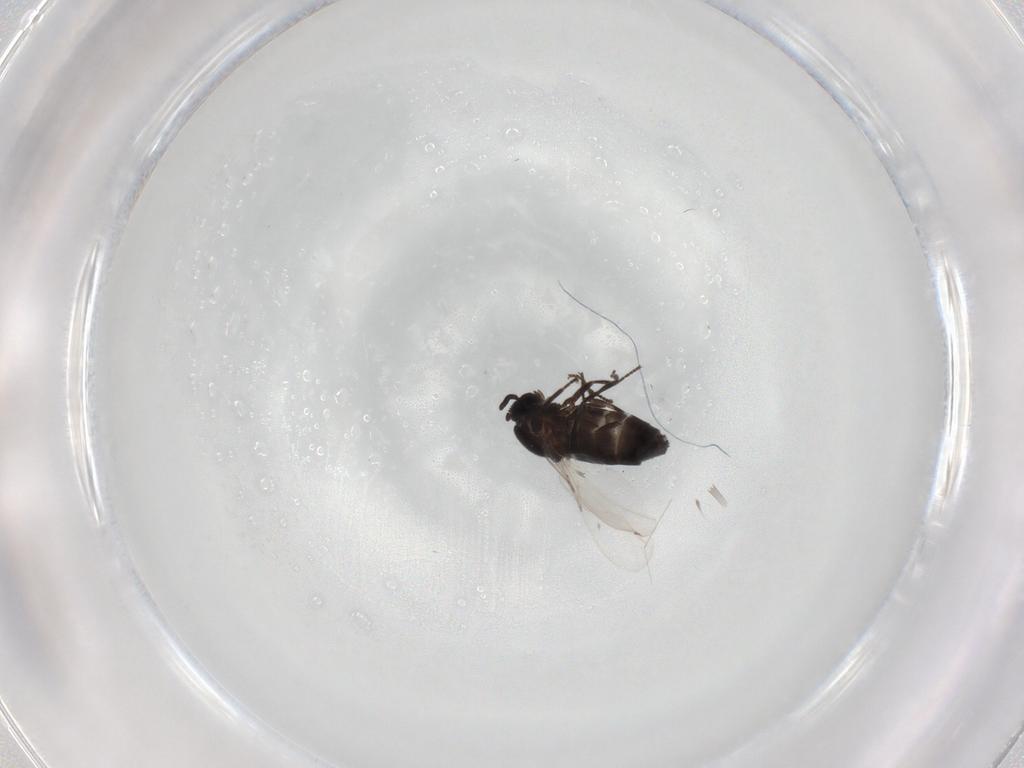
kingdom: Animalia
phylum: Arthropoda
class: Insecta
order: Diptera
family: Scatopsidae
